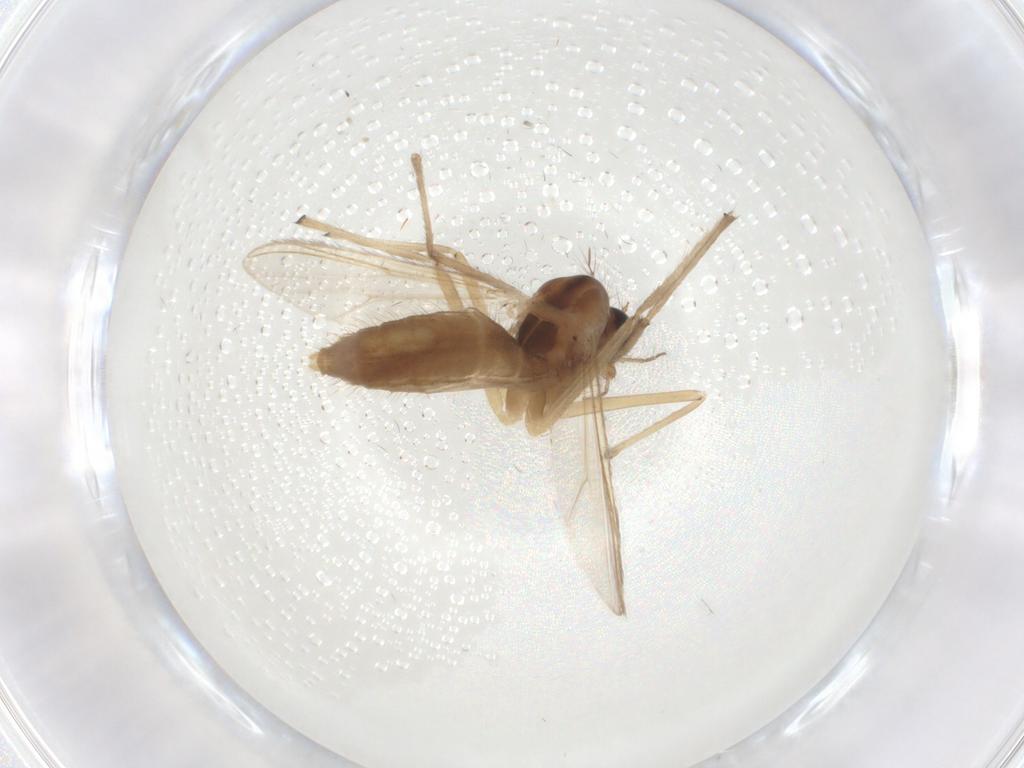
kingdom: Animalia
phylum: Arthropoda
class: Insecta
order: Diptera
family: Chironomidae
